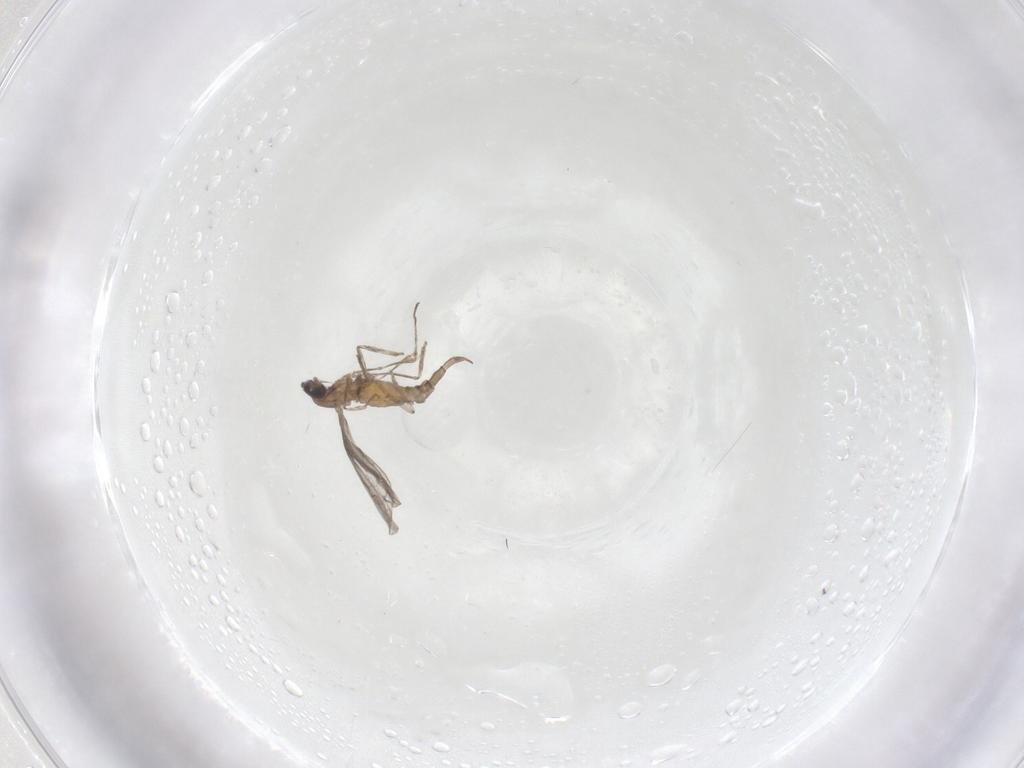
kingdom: Animalia
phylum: Arthropoda
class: Insecta
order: Diptera
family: Cecidomyiidae
